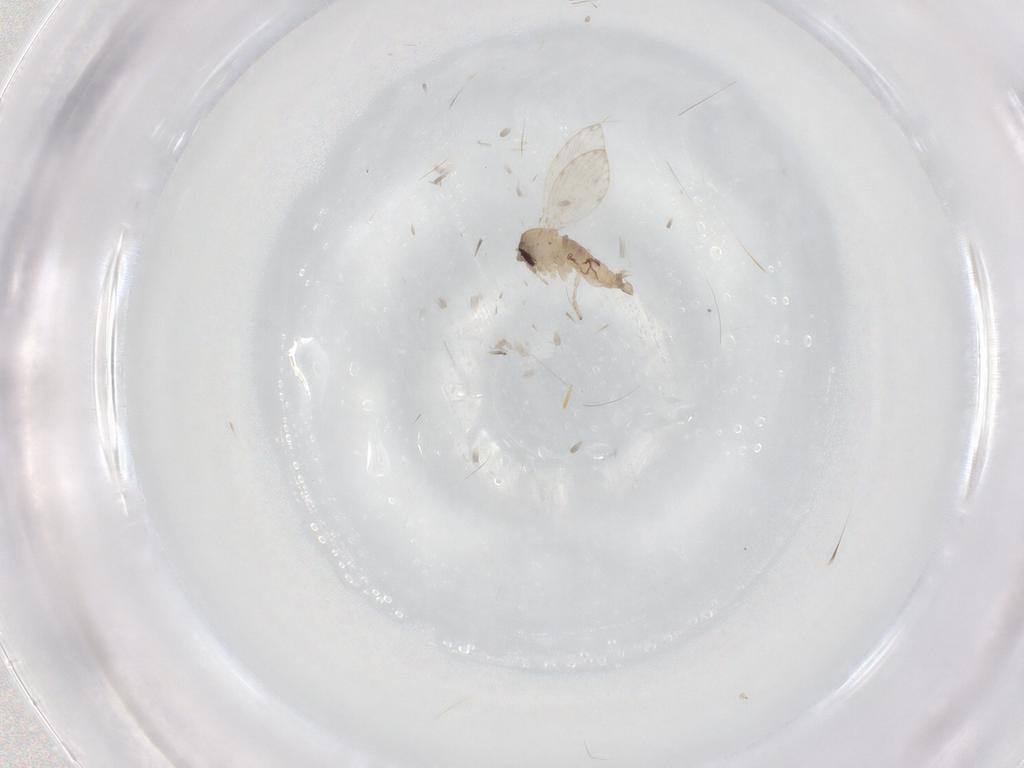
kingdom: Animalia
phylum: Arthropoda
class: Insecta
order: Diptera
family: Psychodidae
